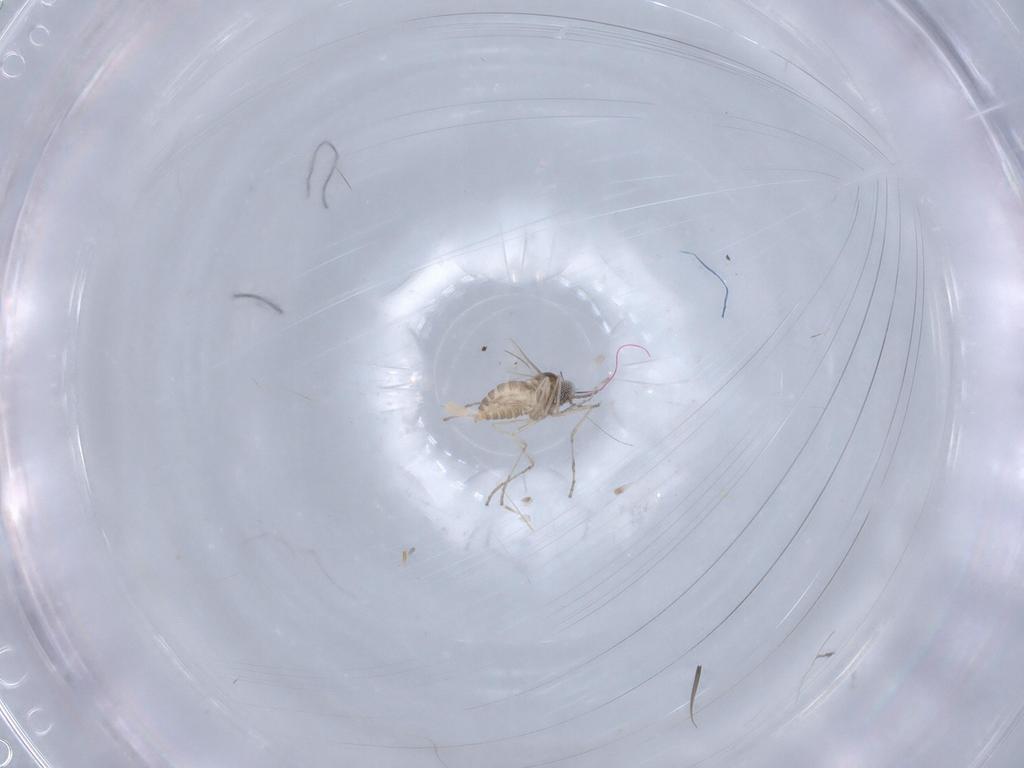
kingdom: Animalia
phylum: Arthropoda
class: Insecta
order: Diptera
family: Cecidomyiidae
